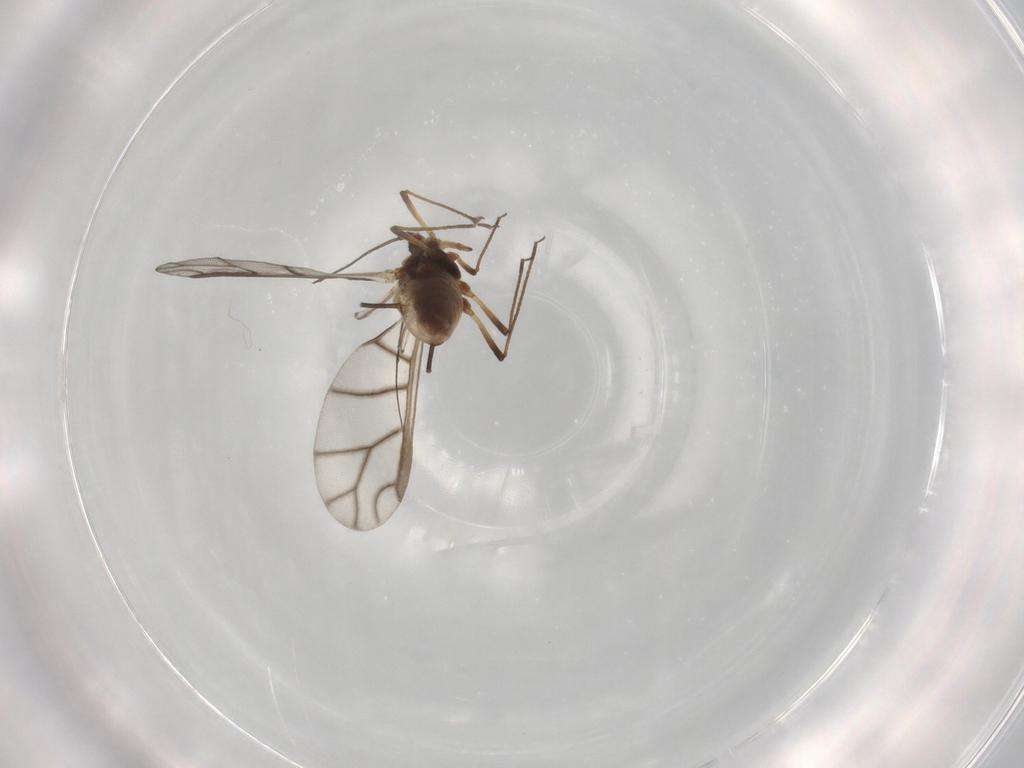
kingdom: Animalia
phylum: Arthropoda
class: Insecta
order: Hemiptera
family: Aphididae
